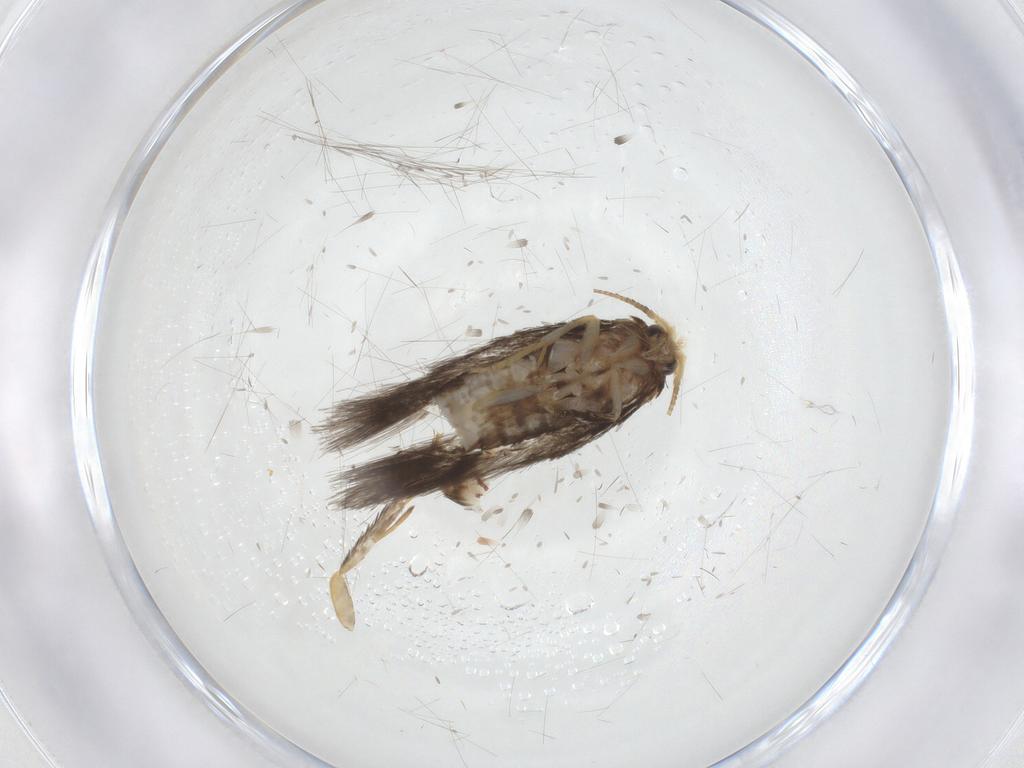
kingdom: Animalia
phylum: Arthropoda
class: Insecta
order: Lepidoptera
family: Nepticulidae
